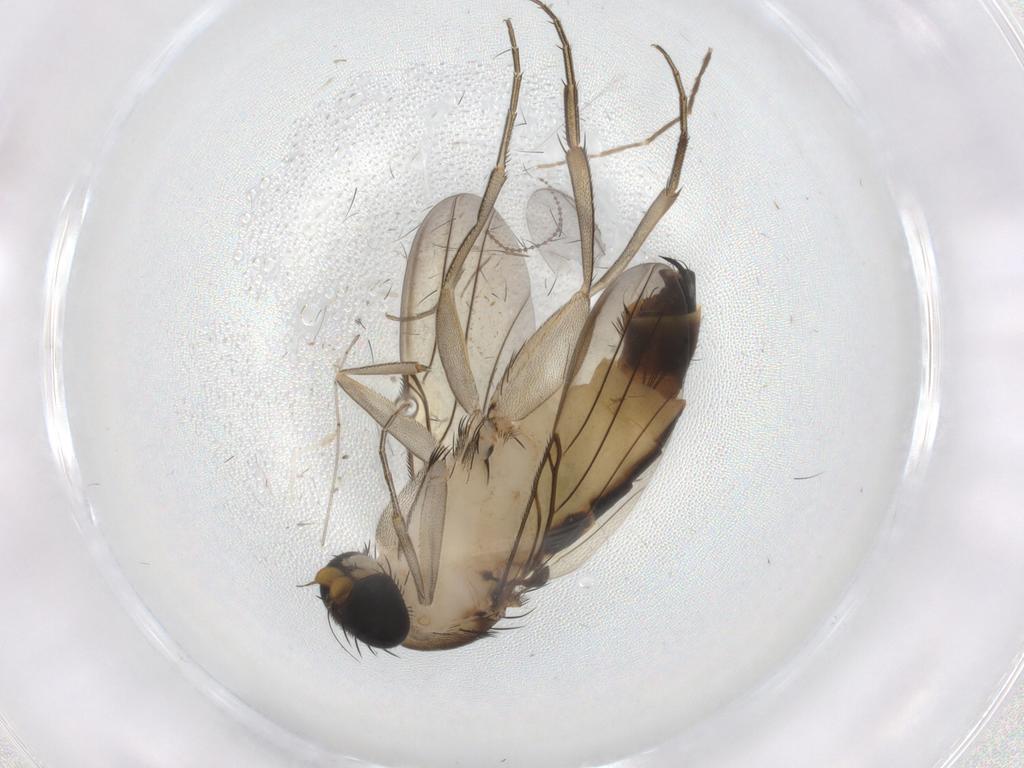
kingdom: Animalia
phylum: Arthropoda
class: Insecta
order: Diptera
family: Phoridae
